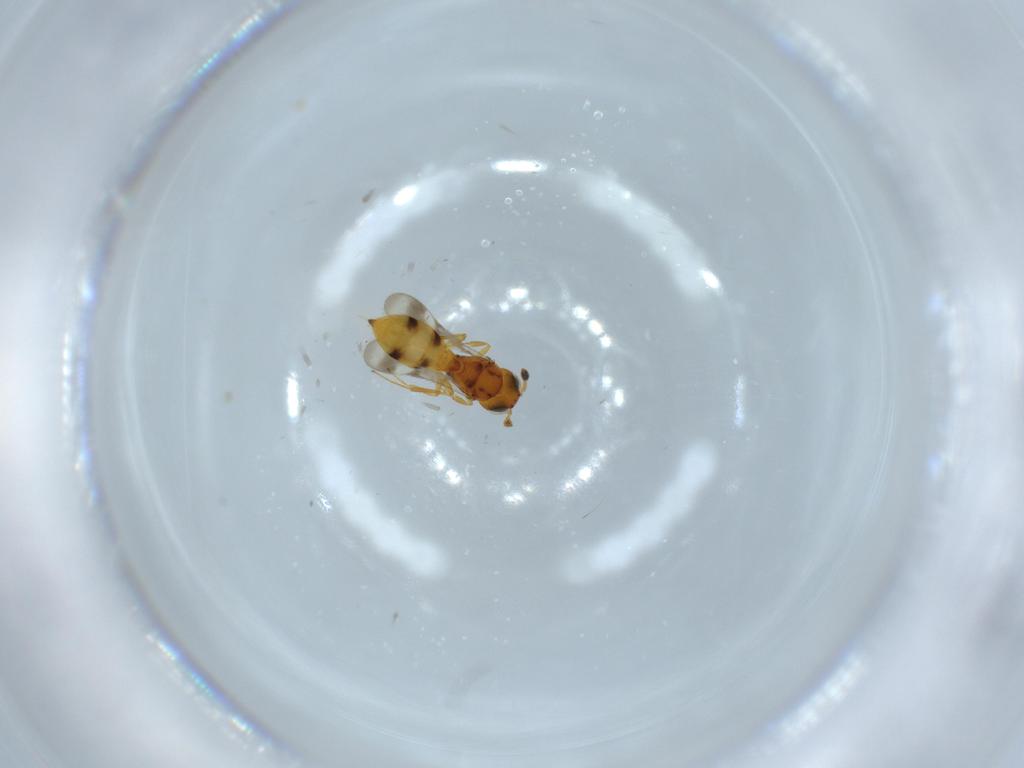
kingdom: Animalia
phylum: Arthropoda
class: Insecta
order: Hymenoptera
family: Scelionidae
